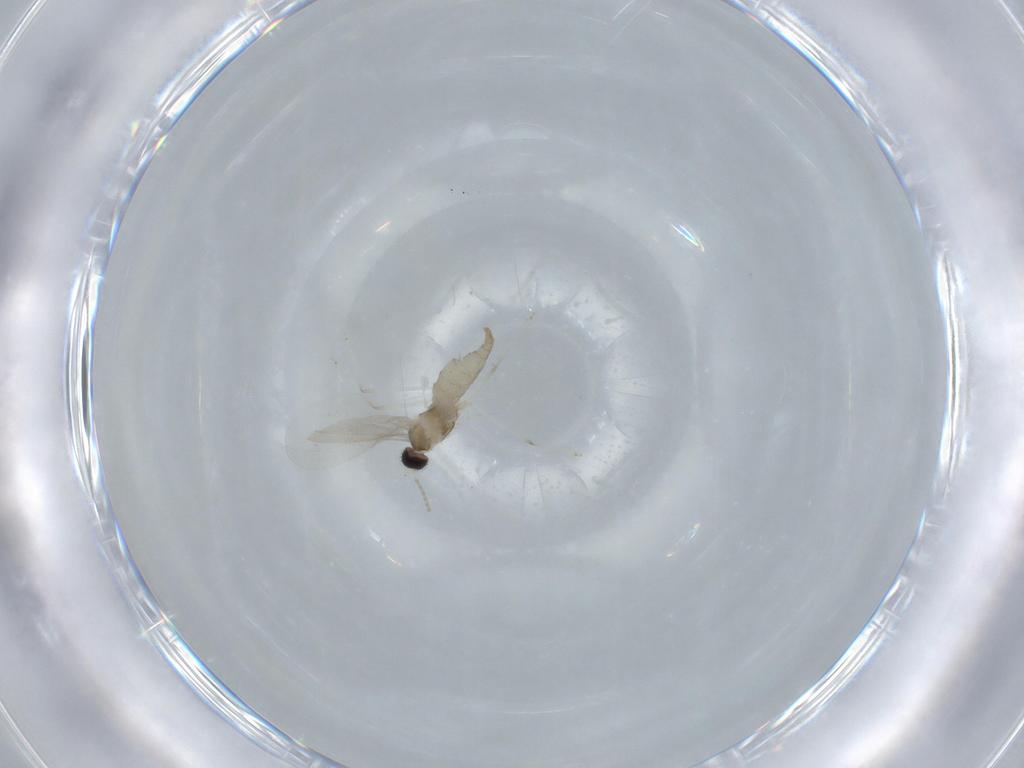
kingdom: Animalia
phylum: Arthropoda
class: Insecta
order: Diptera
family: Cecidomyiidae
